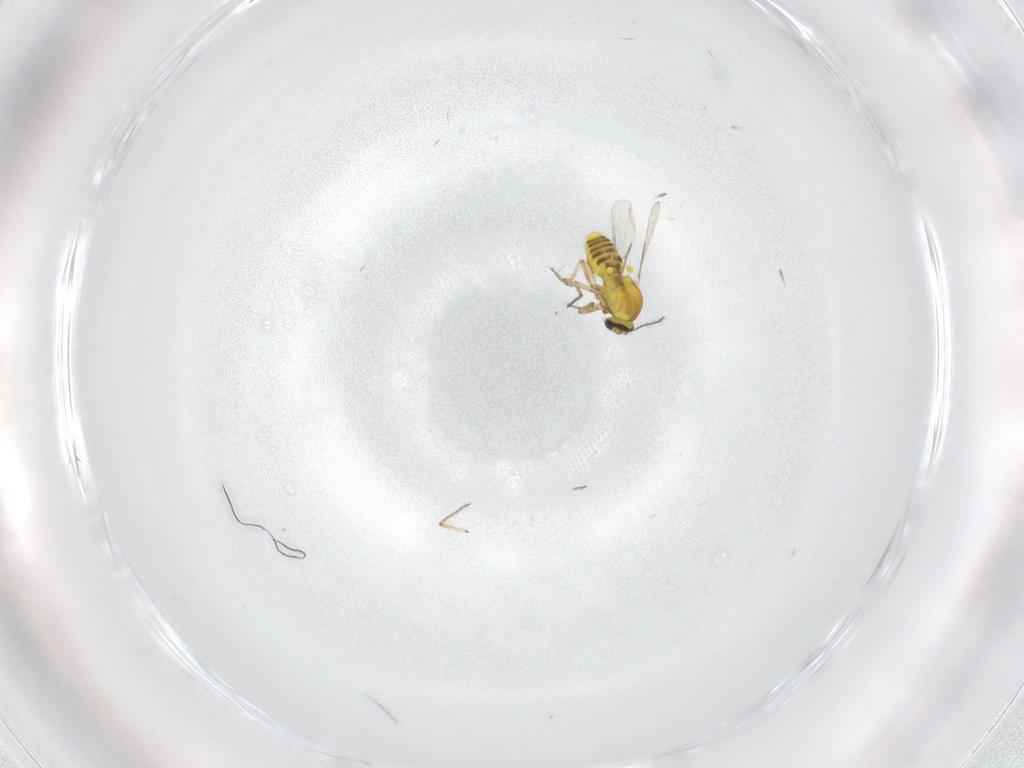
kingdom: Animalia
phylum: Arthropoda
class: Insecta
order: Diptera
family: Ceratopogonidae
